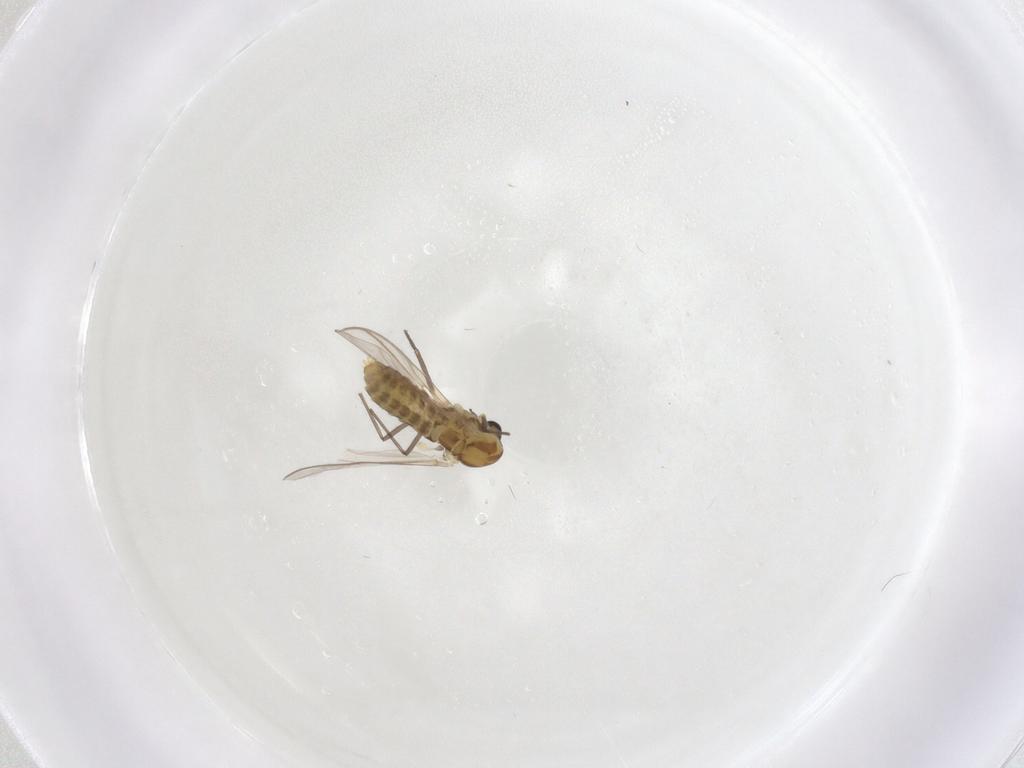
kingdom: Animalia
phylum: Arthropoda
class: Insecta
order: Diptera
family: Chironomidae
